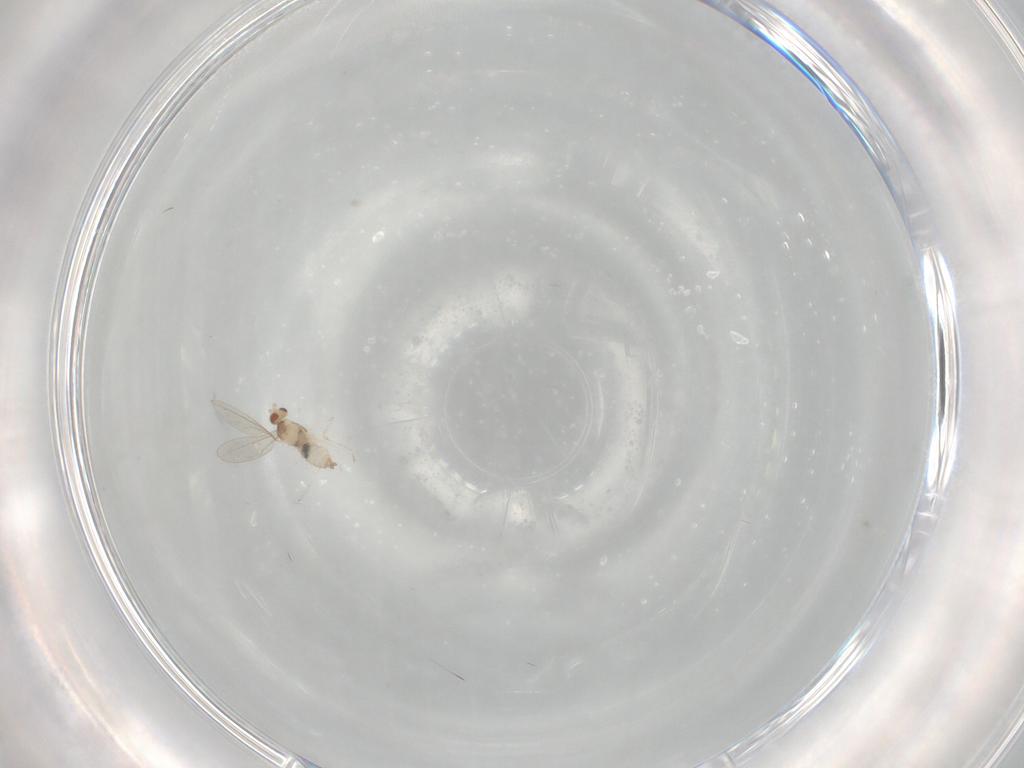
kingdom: Animalia
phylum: Arthropoda
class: Insecta
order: Diptera
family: Cecidomyiidae
